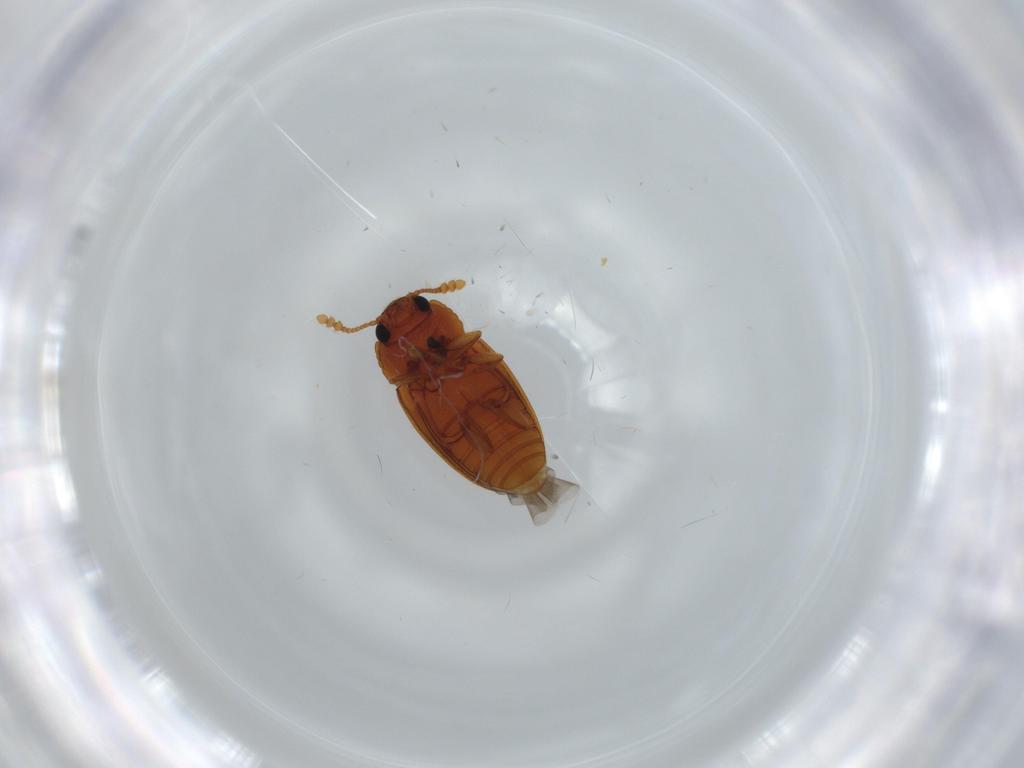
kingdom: Animalia
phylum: Arthropoda
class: Insecta
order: Coleoptera
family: Erotylidae
